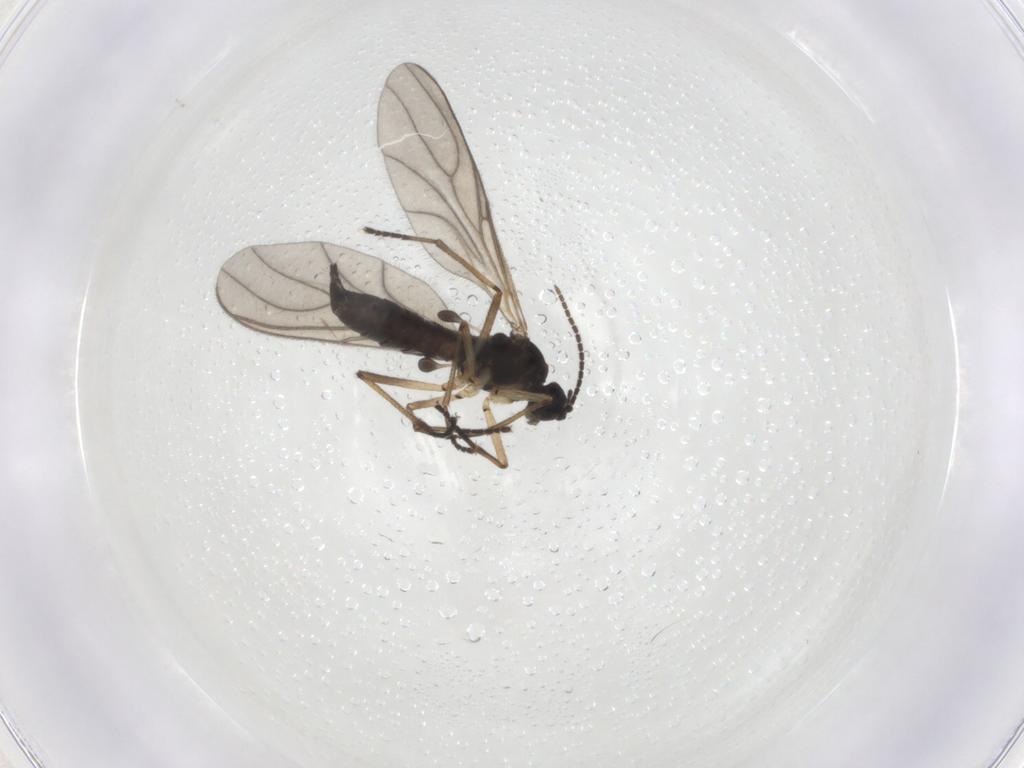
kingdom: Animalia
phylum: Arthropoda
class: Insecta
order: Diptera
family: Sciaridae
